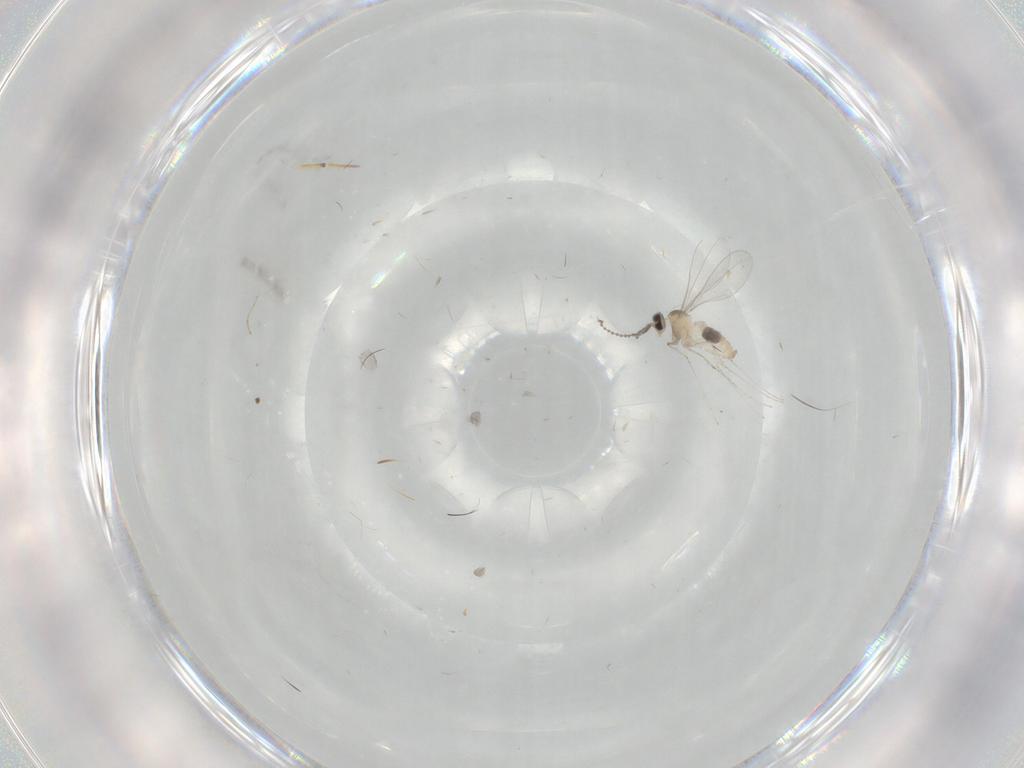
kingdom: Animalia
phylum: Arthropoda
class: Insecta
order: Diptera
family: Cecidomyiidae
